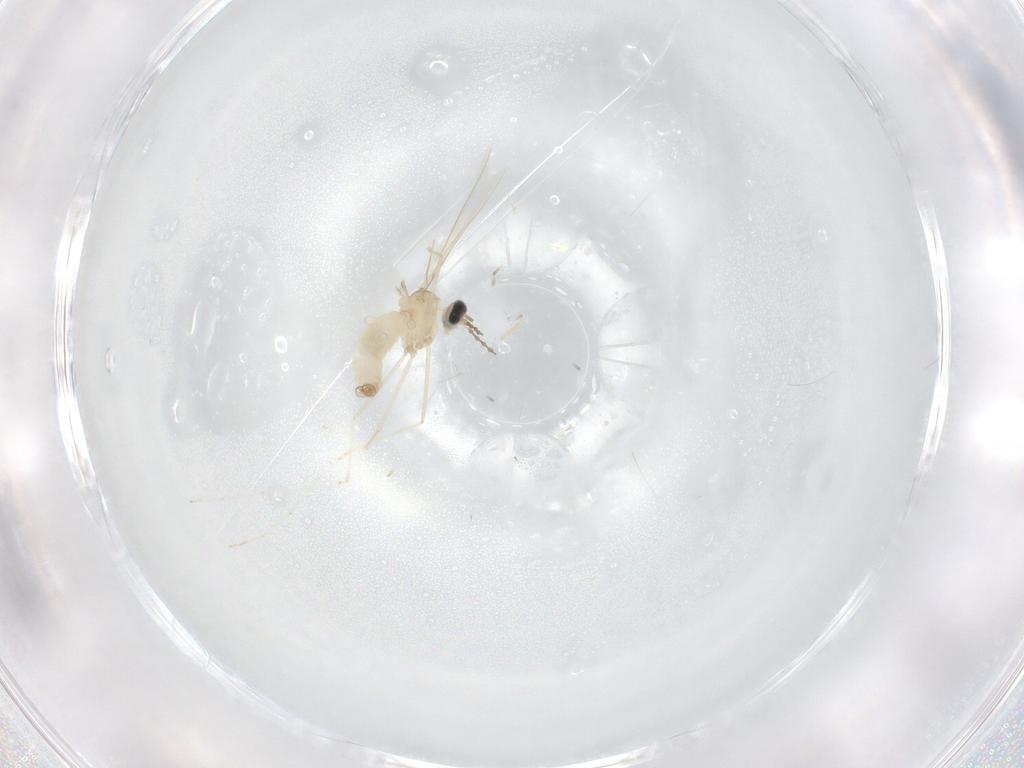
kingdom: Animalia
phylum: Arthropoda
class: Insecta
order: Diptera
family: Cecidomyiidae
